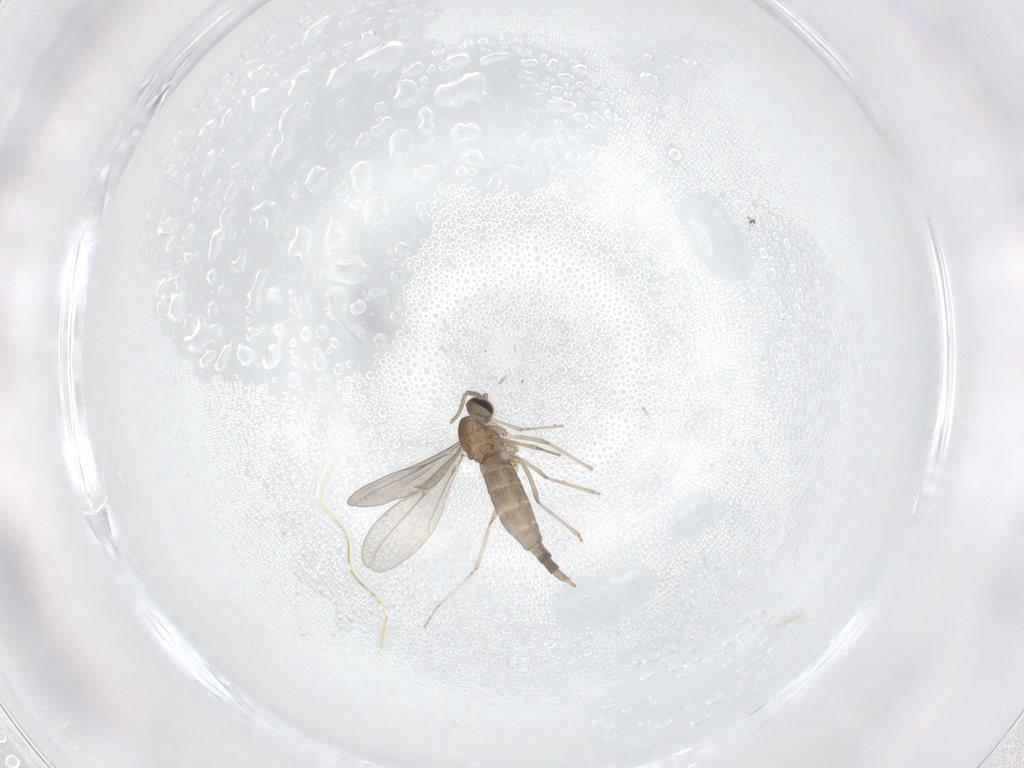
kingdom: Animalia
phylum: Arthropoda
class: Insecta
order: Diptera
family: Cecidomyiidae
